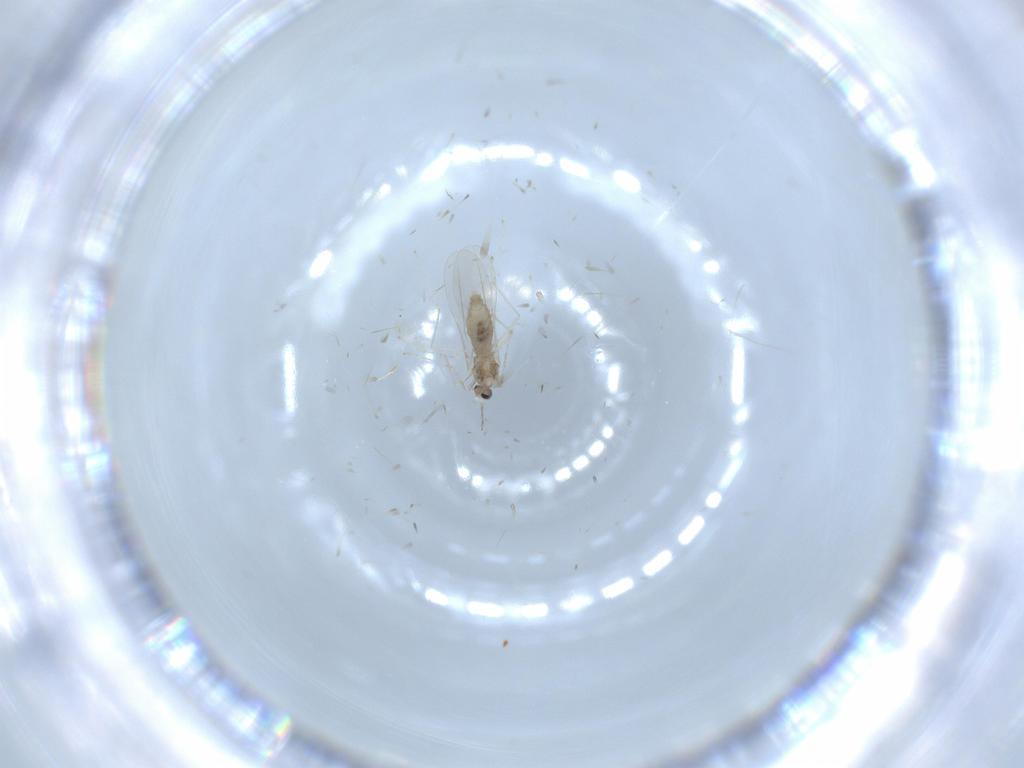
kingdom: Animalia
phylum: Arthropoda
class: Insecta
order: Diptera
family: Cecidomyiidae
